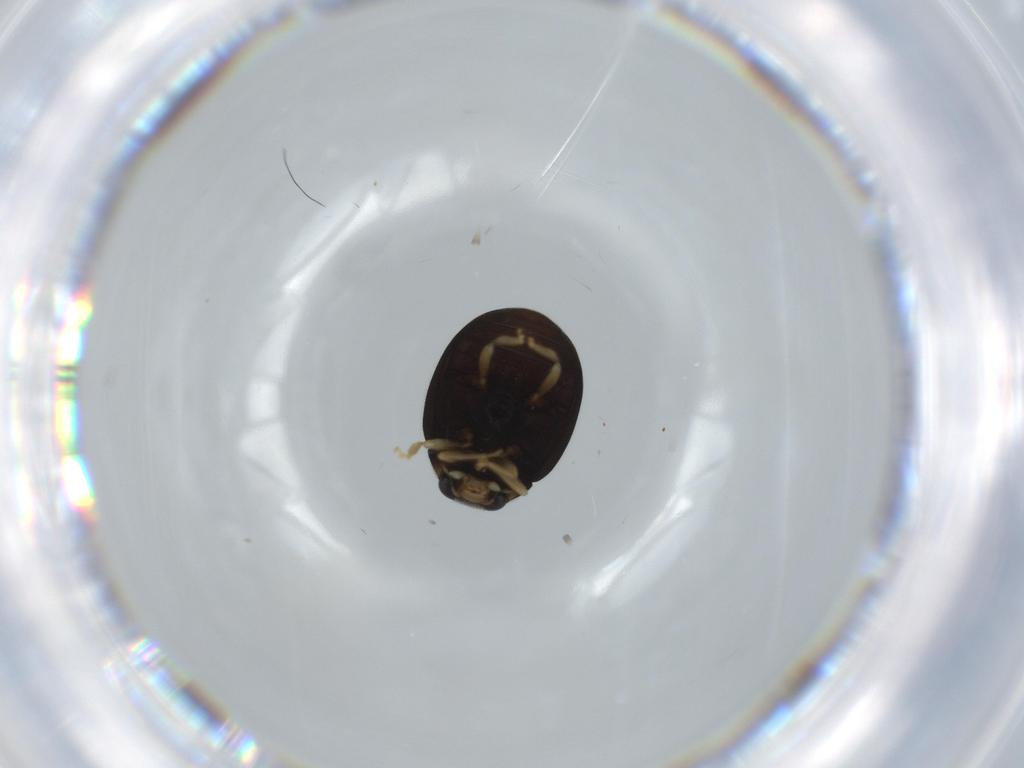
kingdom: Animalia
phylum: Arthropoda
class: Insecta
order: Coleoptera
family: Coccinellidae
